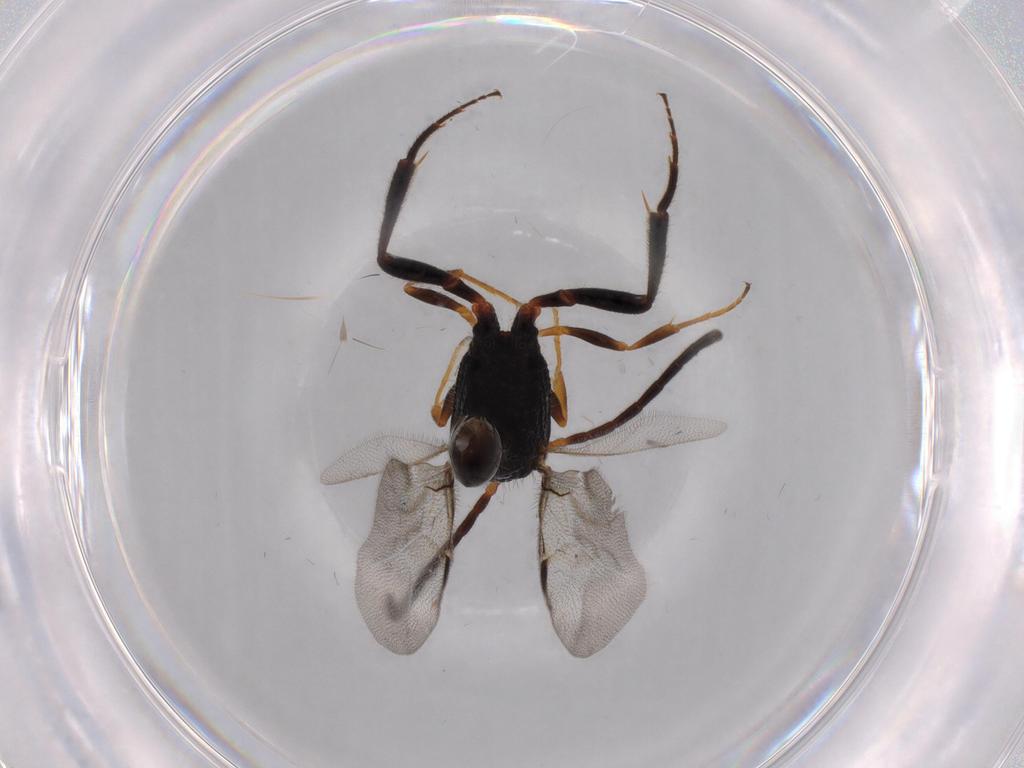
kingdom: Animalia
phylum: Arthropoda
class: Insecta
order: Hymenoptera
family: Evaniidae
